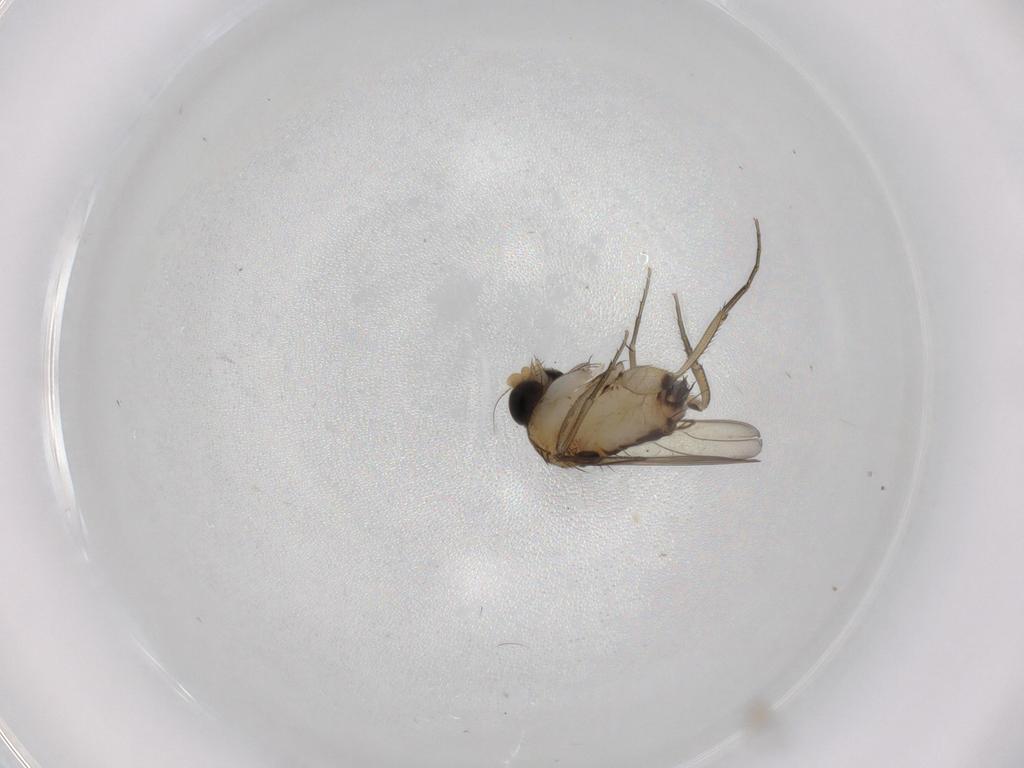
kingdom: Animalia
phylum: Arthropoda
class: Insecta
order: Diptera
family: Phoridae
